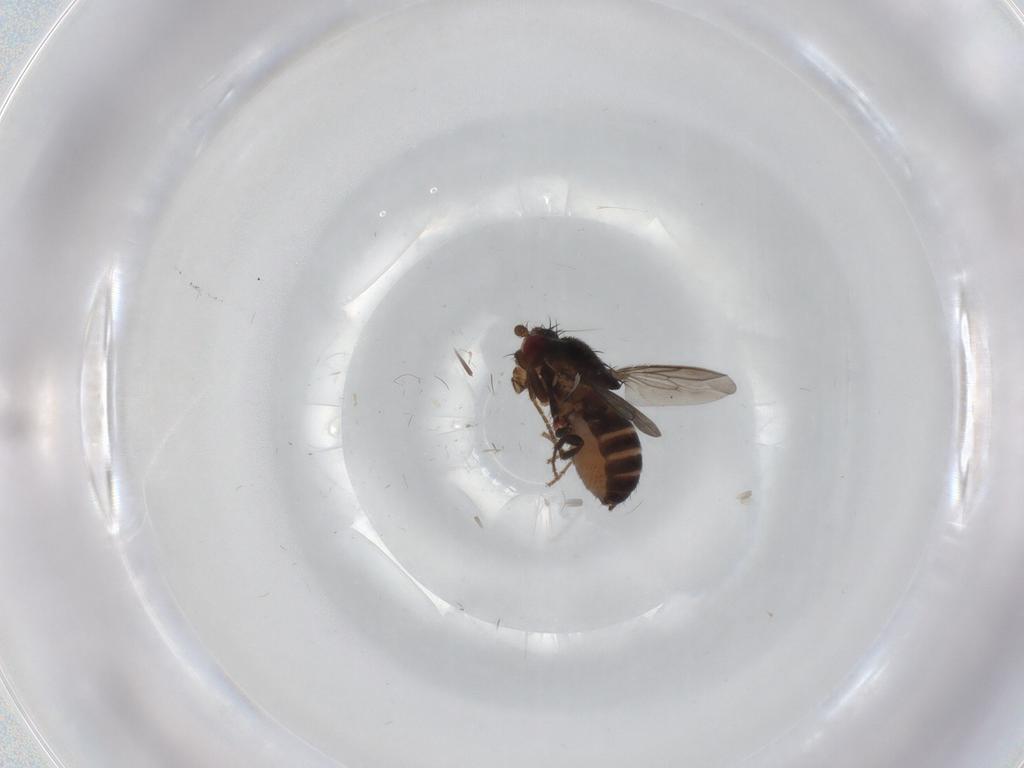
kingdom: Animalia
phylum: Arthropoda
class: Insecta
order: Diptera
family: Sphaeroceridae
